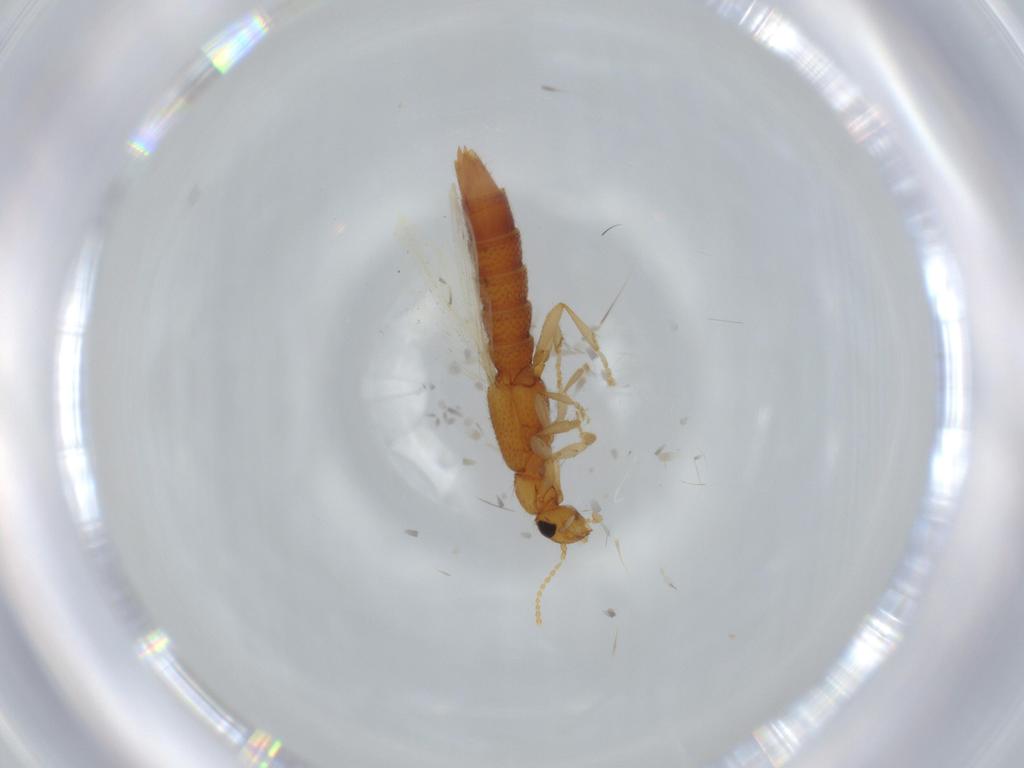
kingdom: Animalia
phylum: Arthropoda
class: Insecta
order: Coleoptera
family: Staphylinidae
